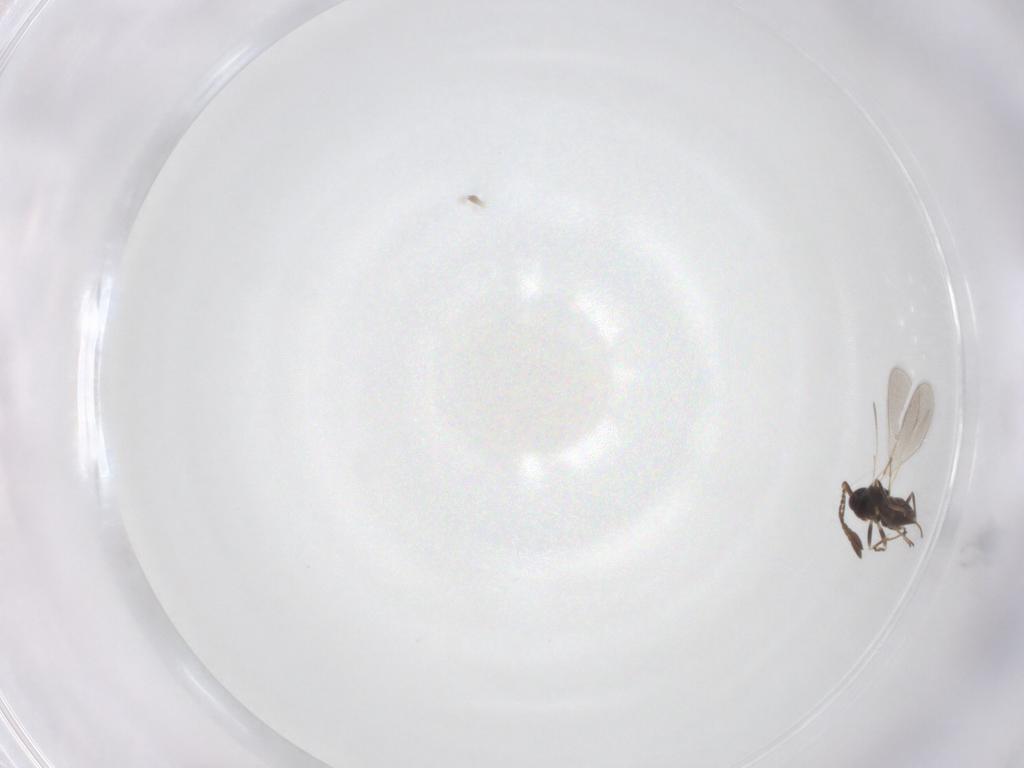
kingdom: Animalia
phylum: Arthropoda
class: Insecta
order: Hymenoptera
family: Mymaridae
